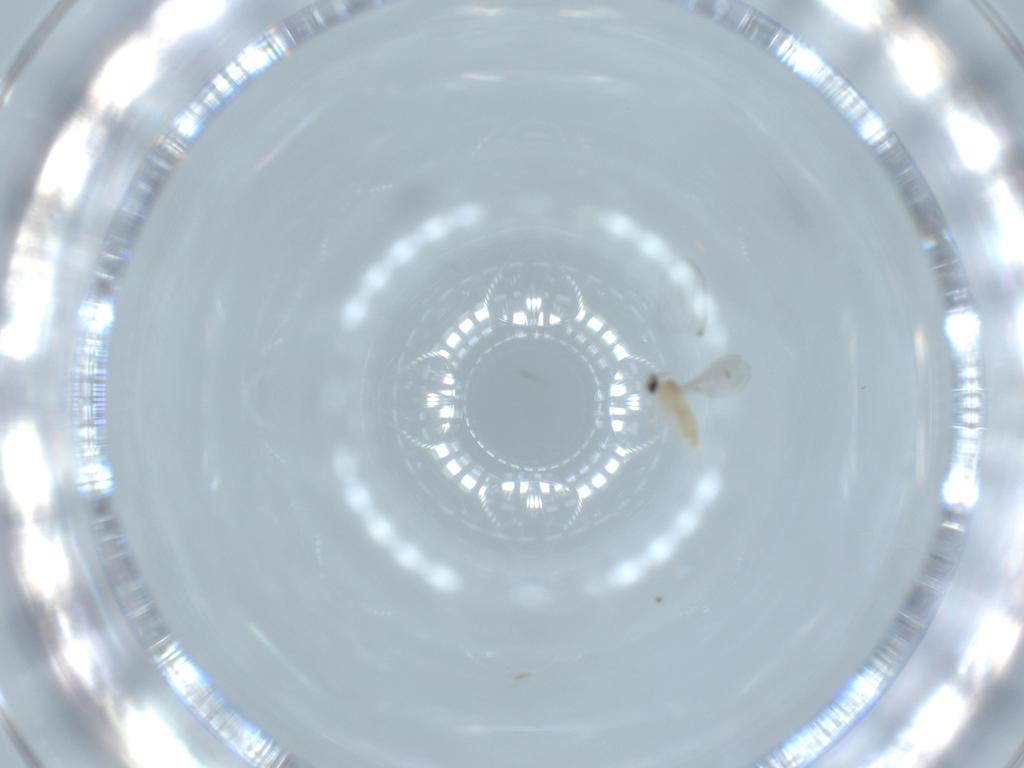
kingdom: Animalia
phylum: Arthropoda
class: Insecta
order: Diptera
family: Cecidomyiidae
